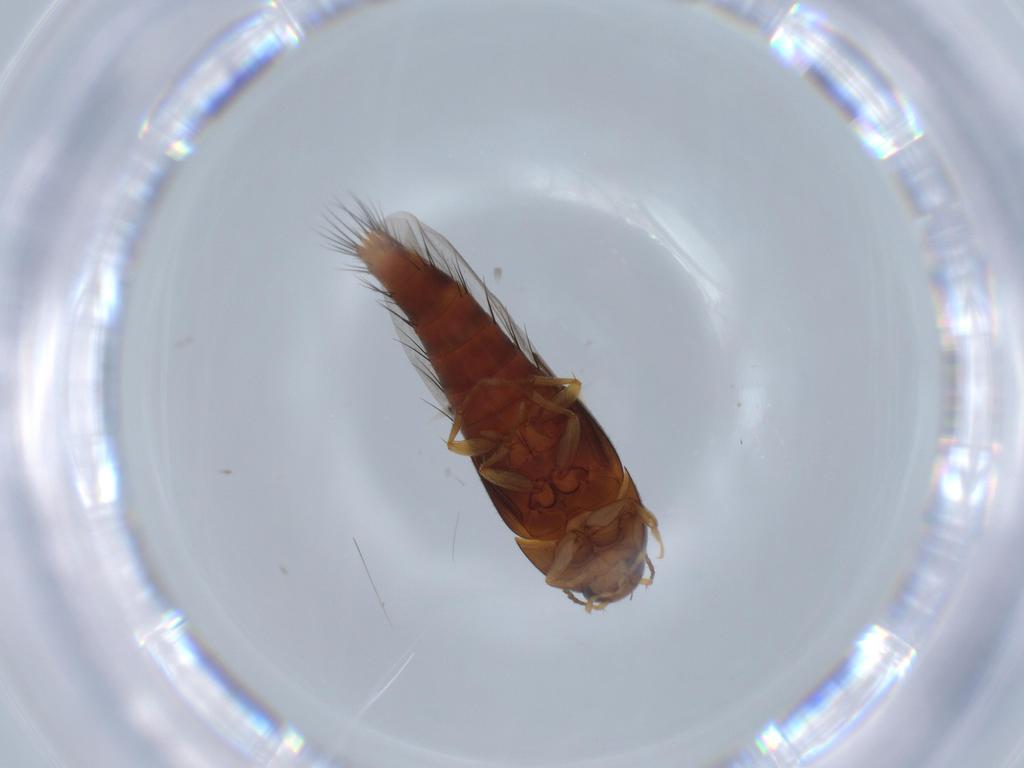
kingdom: Animalia
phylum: Arthropoda
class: Insecta
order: Coleoptera
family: Staphylinidae
